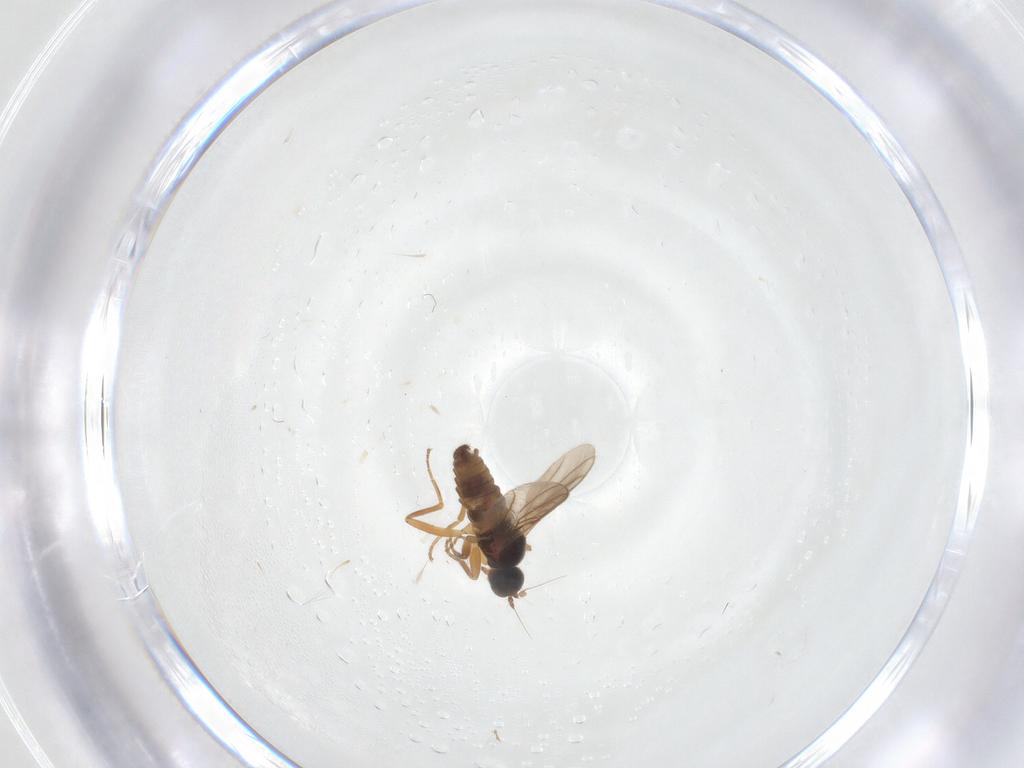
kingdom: Animalia
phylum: Arthropoda
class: Insecta
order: Diptera
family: Hybotidae
